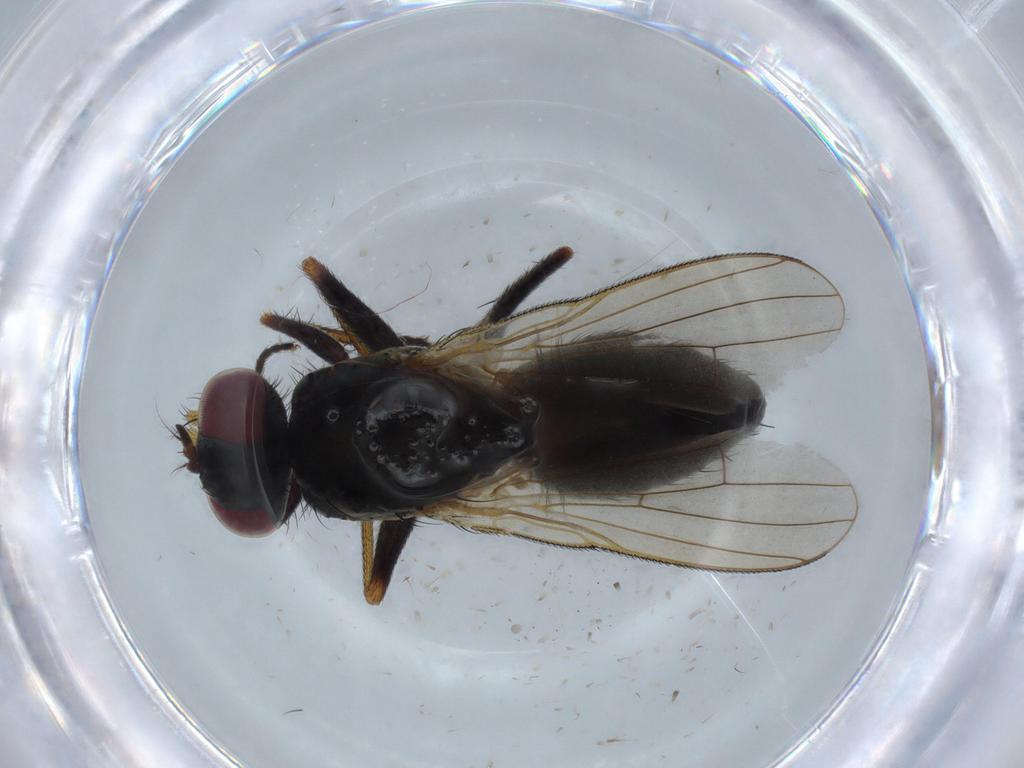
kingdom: Animalia
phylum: Arthropoda
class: Insecta
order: Diptera
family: Muscidae
